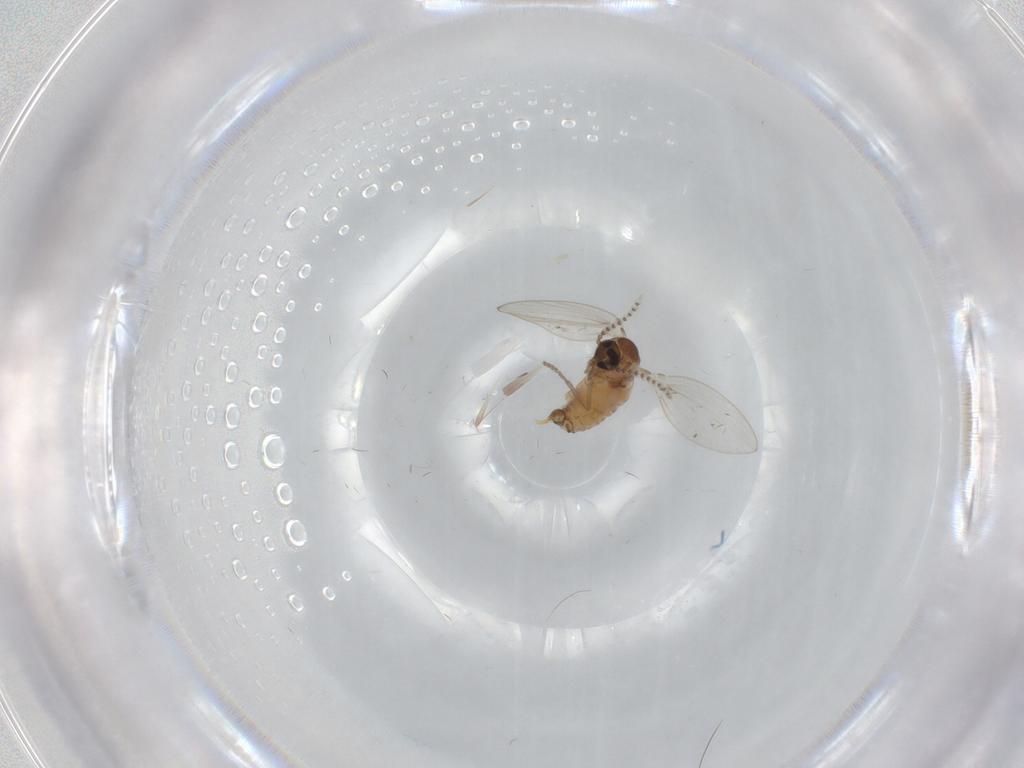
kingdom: Animalia
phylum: Arthropoda
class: Insecta
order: Diptera
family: Psychodidae
